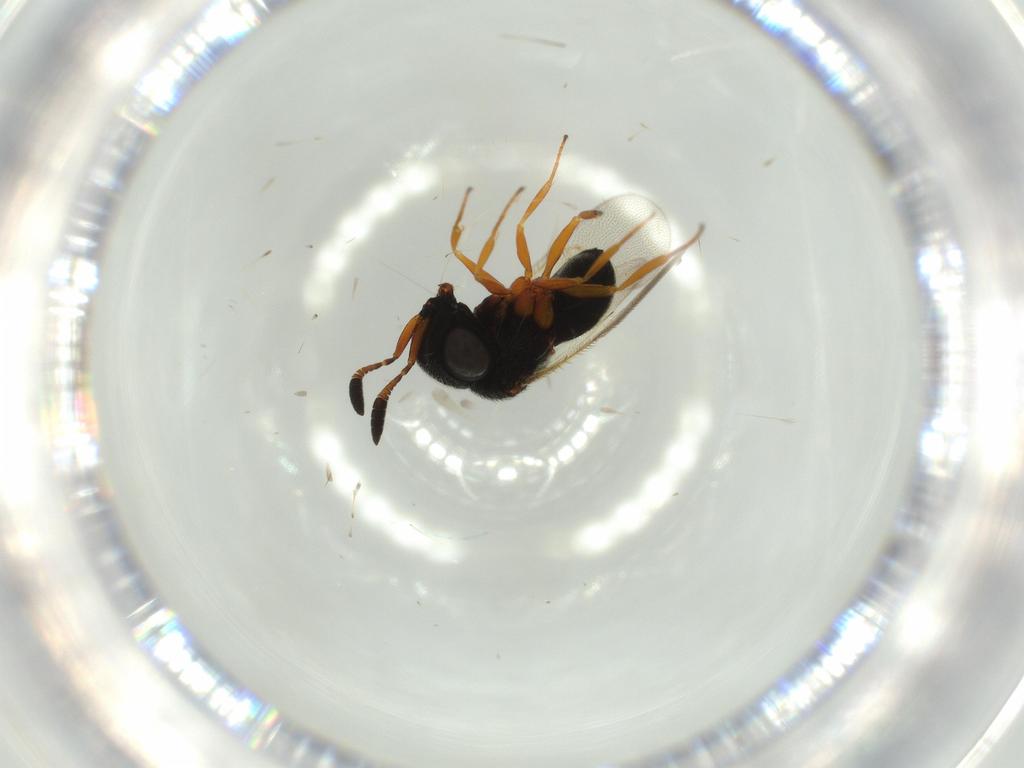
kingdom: Animalia
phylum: Arthropoda
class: Insecta
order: Hymenoptera
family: Scelionidae
